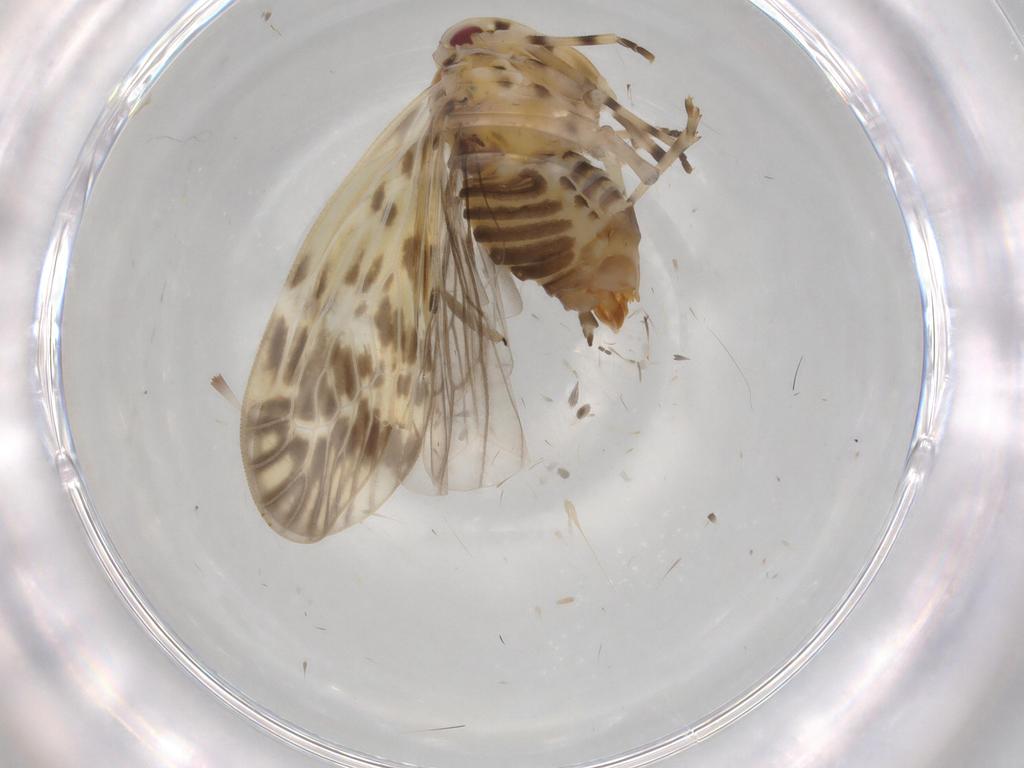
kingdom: Animalia
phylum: Arthropoda
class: Insecta
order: Hemiptera
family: Derbidae
